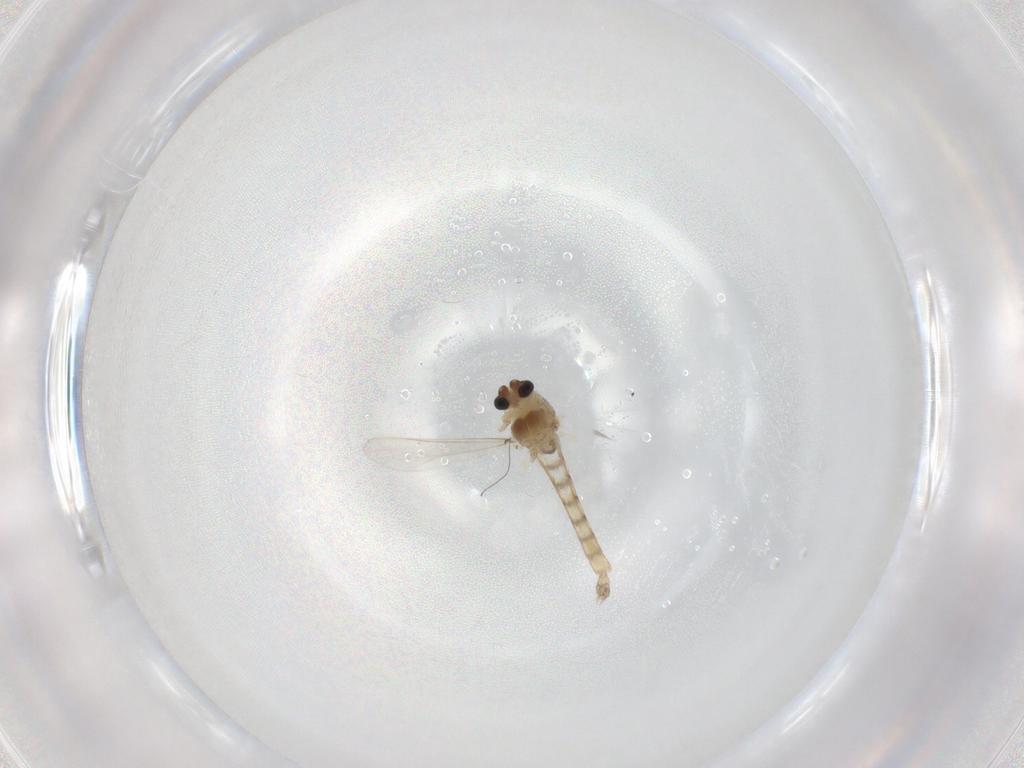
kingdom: Animalia
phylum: Arthropoda
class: Insecta
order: Diptera
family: Chironomidae
